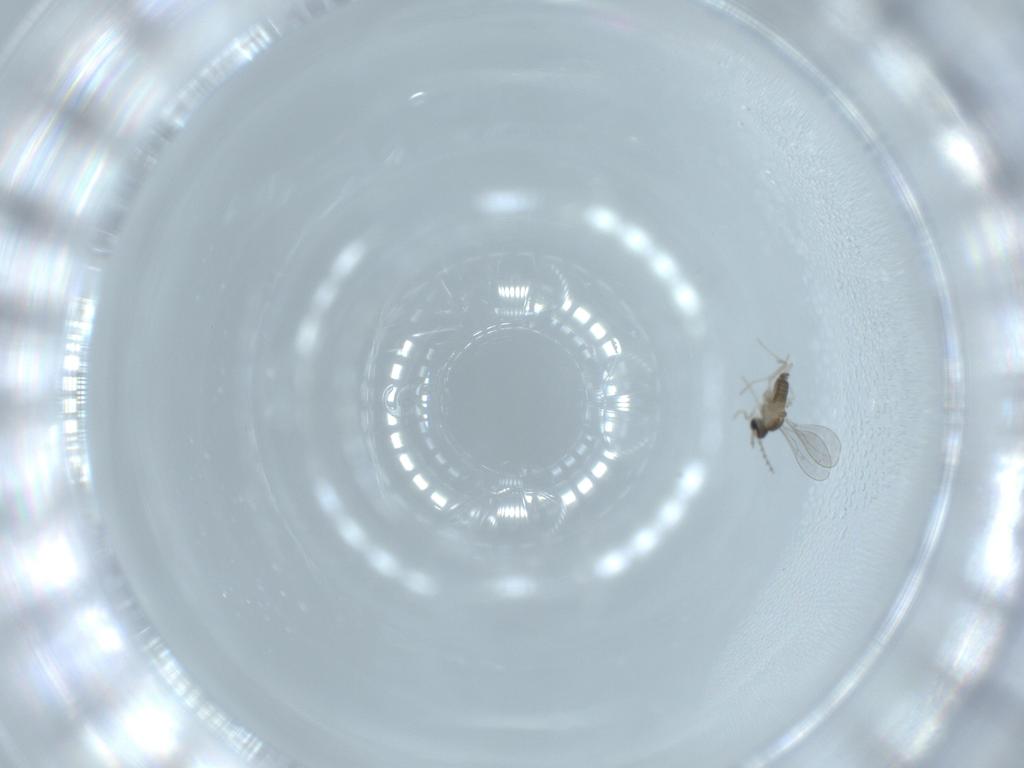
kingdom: Animalia
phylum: Arthropoda
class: Insecta
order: Diptera
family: Cecidomyiidae
